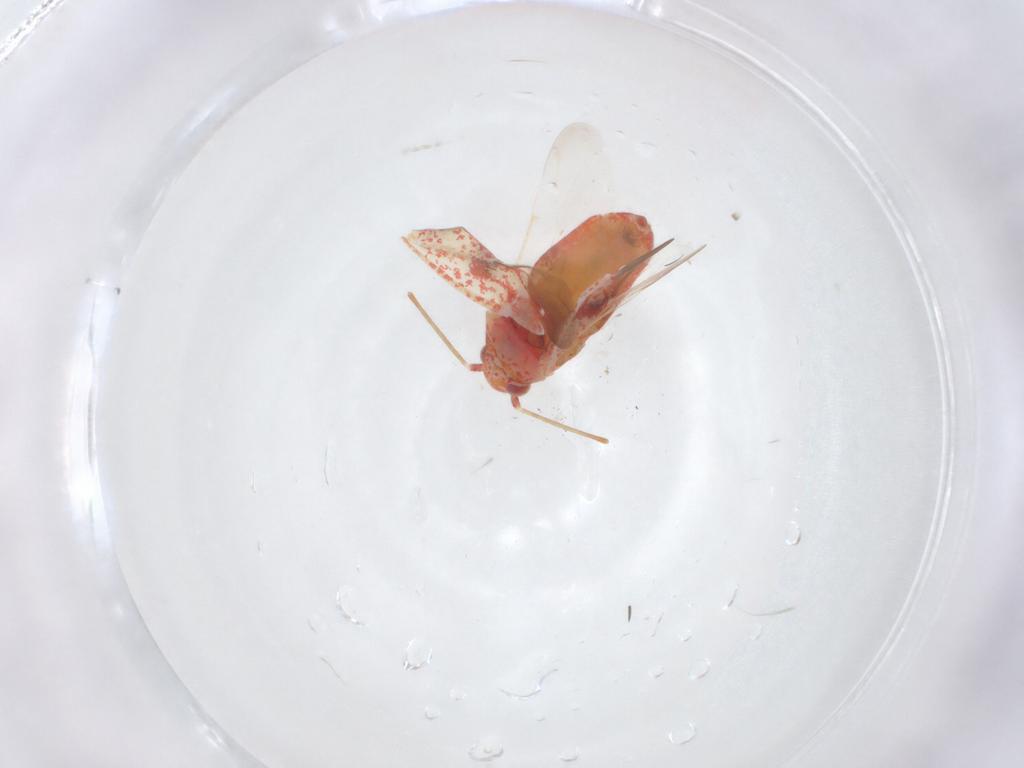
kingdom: Animalia
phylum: Arthropoda
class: Insecta
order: Hemiptera
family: Miridae
